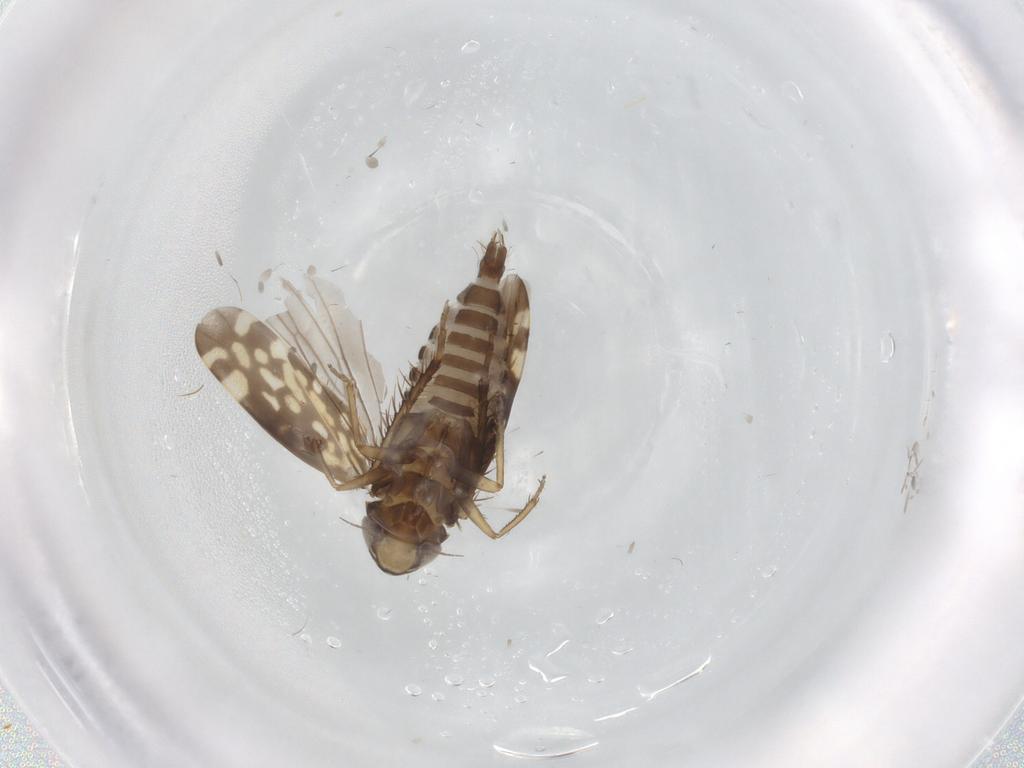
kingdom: Animalia
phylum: Arthropoda
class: Insecta
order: Hemiptera
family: Cicadellidae
